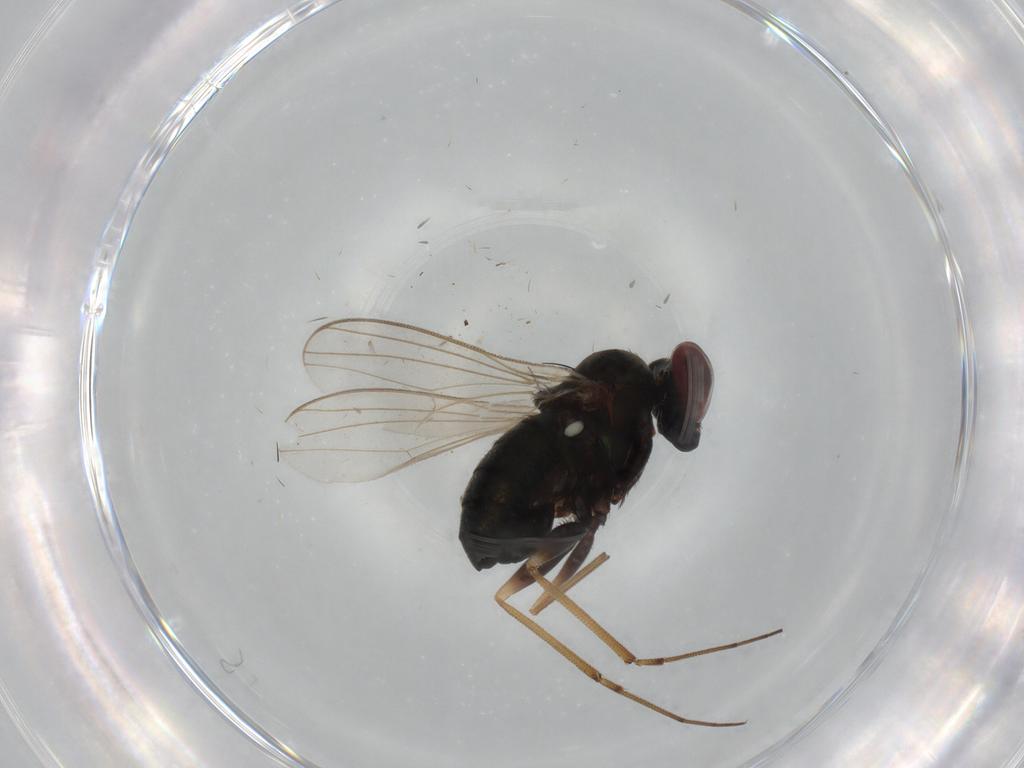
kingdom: Animalia
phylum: Arthropoda
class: Insecta
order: Diptera
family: Dolichopodidae
